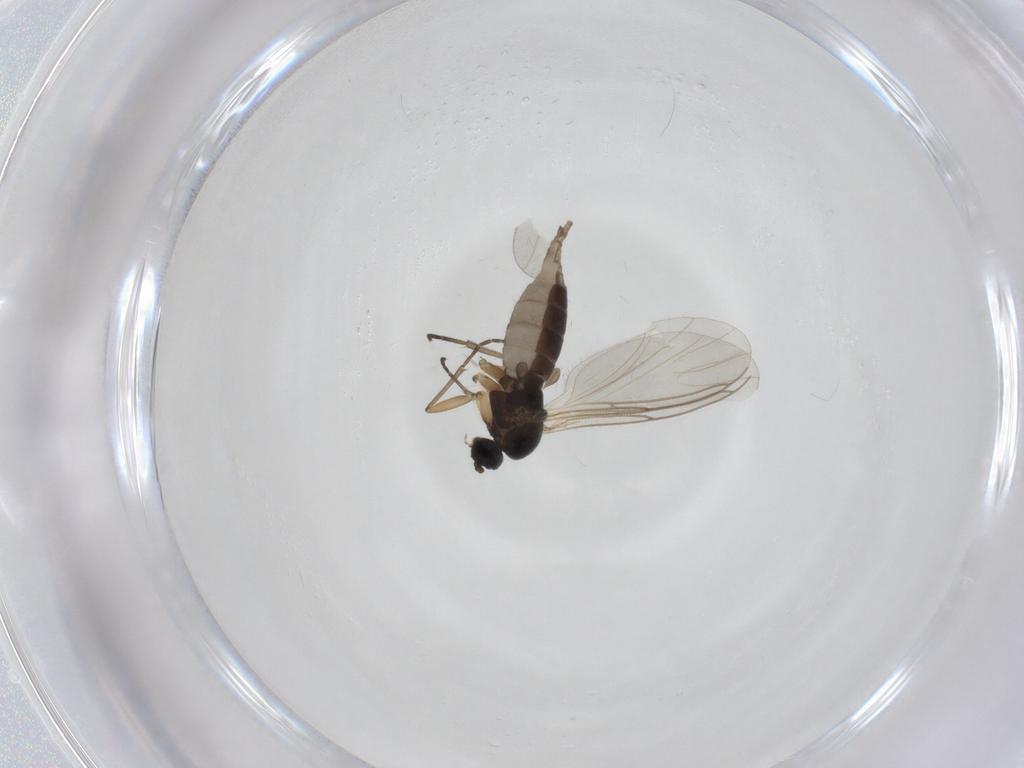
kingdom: Animalia
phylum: Arthropoda
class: Insecta
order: Diptera
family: Sciaridae
